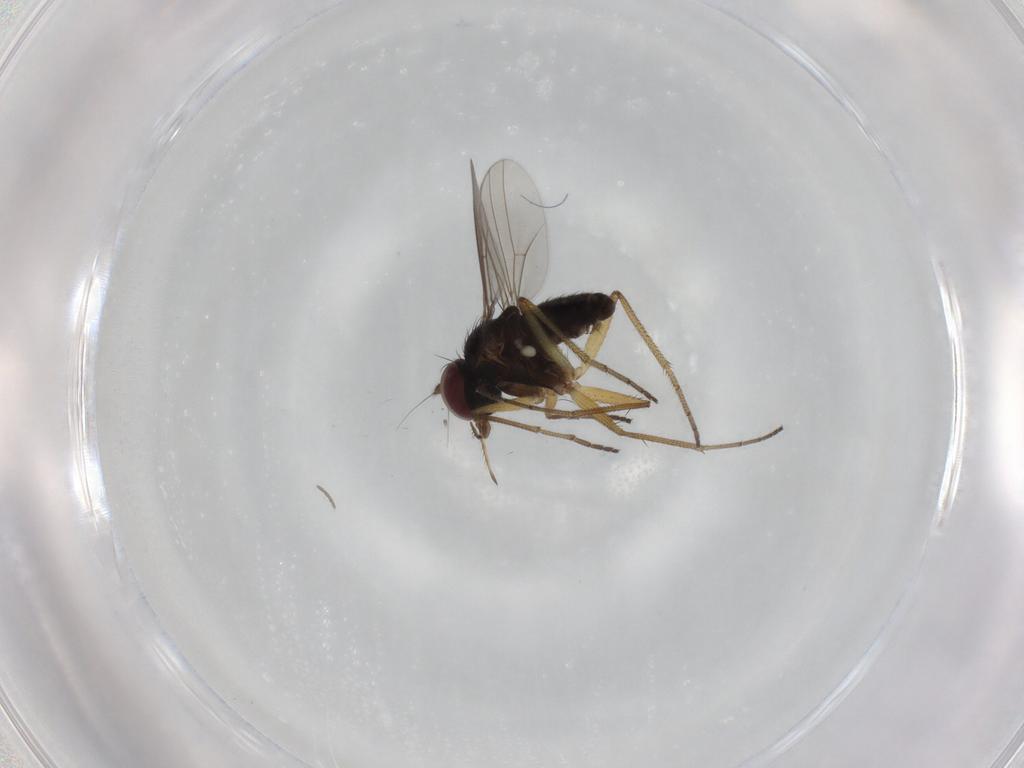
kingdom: Animalia
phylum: Arthropoda
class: Insecta
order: Diptera
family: Dolichopodidae
